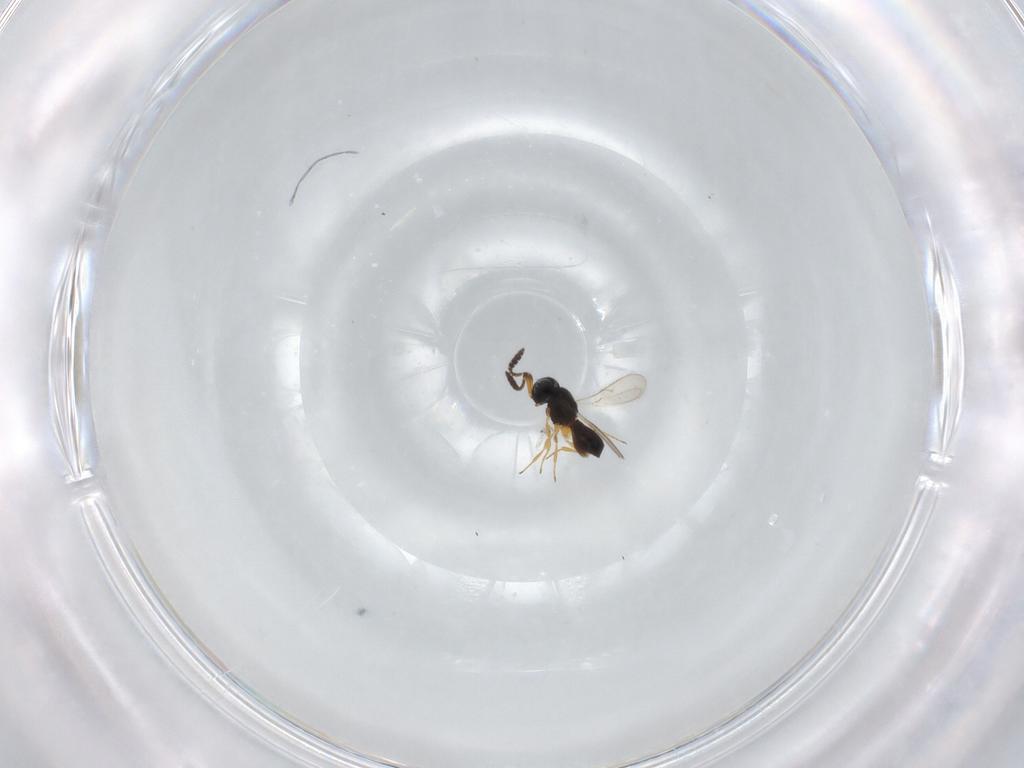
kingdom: Animalia
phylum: Arthropoda
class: Insecta
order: Hymenoptera
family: Scelionidae
